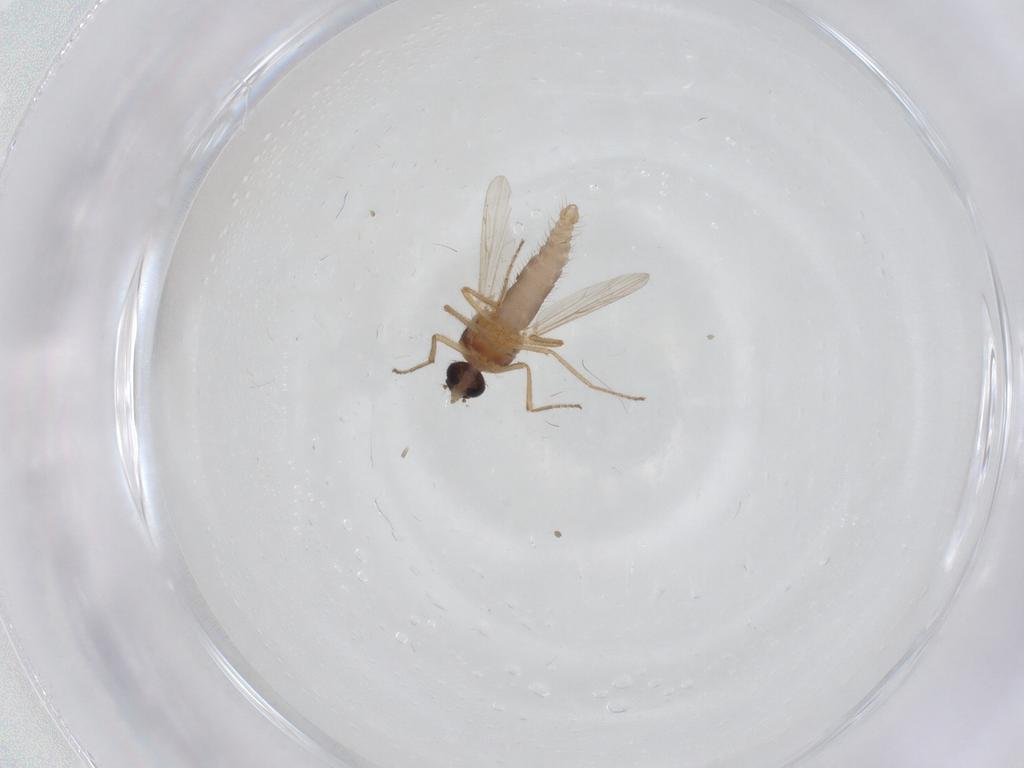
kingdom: Animalia
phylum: Arthropoda
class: Insecta
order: Diptera
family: Ceratopogonidae
